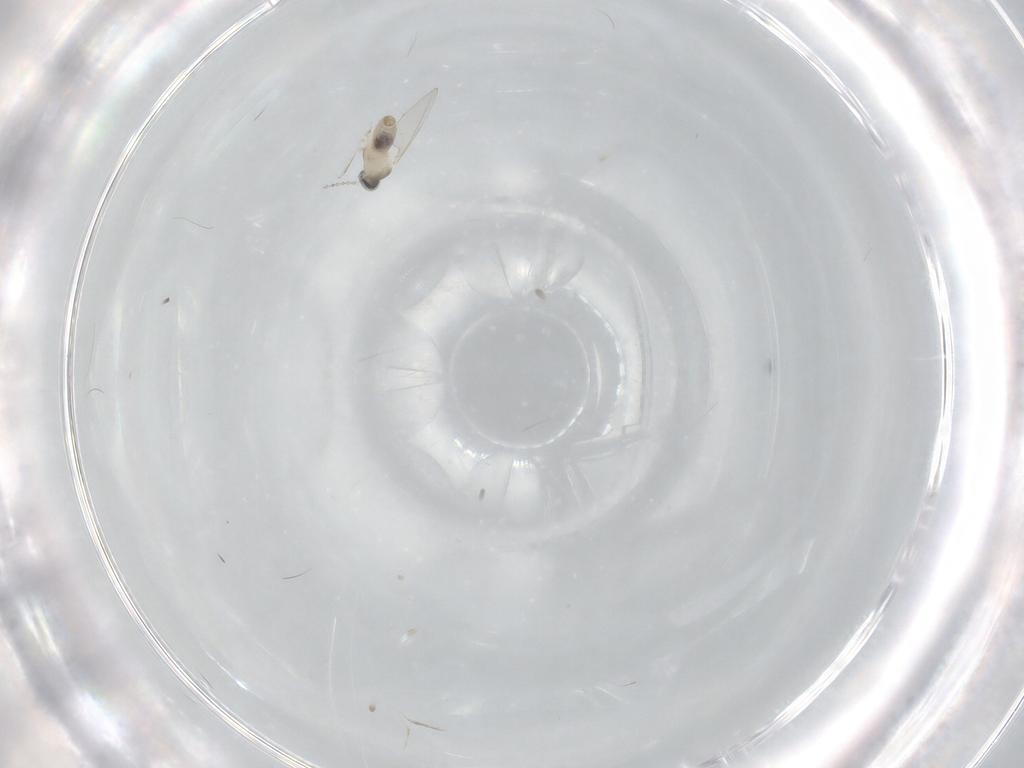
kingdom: Animalia
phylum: Arthropoda
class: Insecta
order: Diptera
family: Cecidomyiidae
